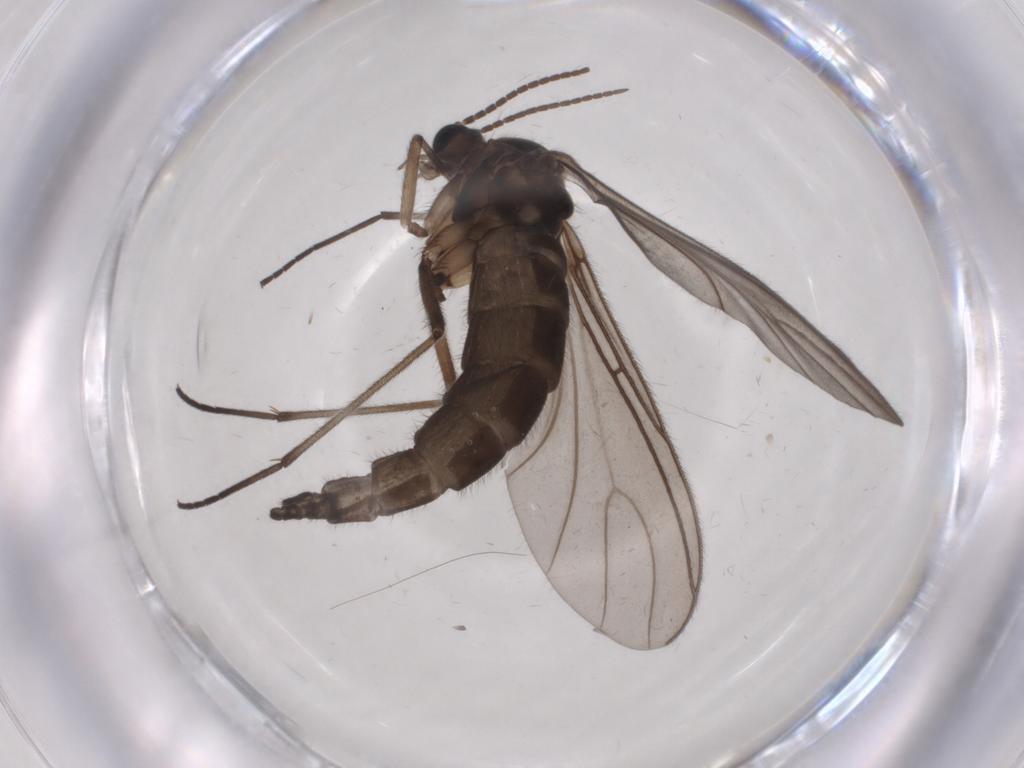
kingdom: Animalia
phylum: Arthropoda
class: Insecta
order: Diptera
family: Sciaridae
